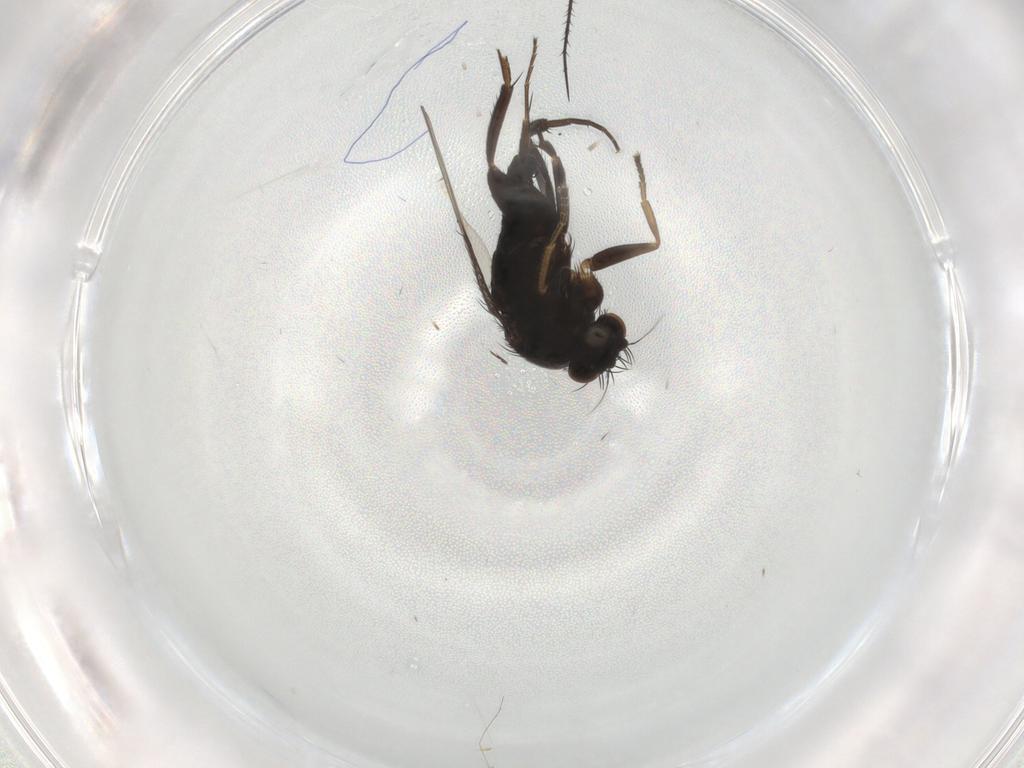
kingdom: Animalia
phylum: Arthropoda
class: Insecta
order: Diptera
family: Phoridae
